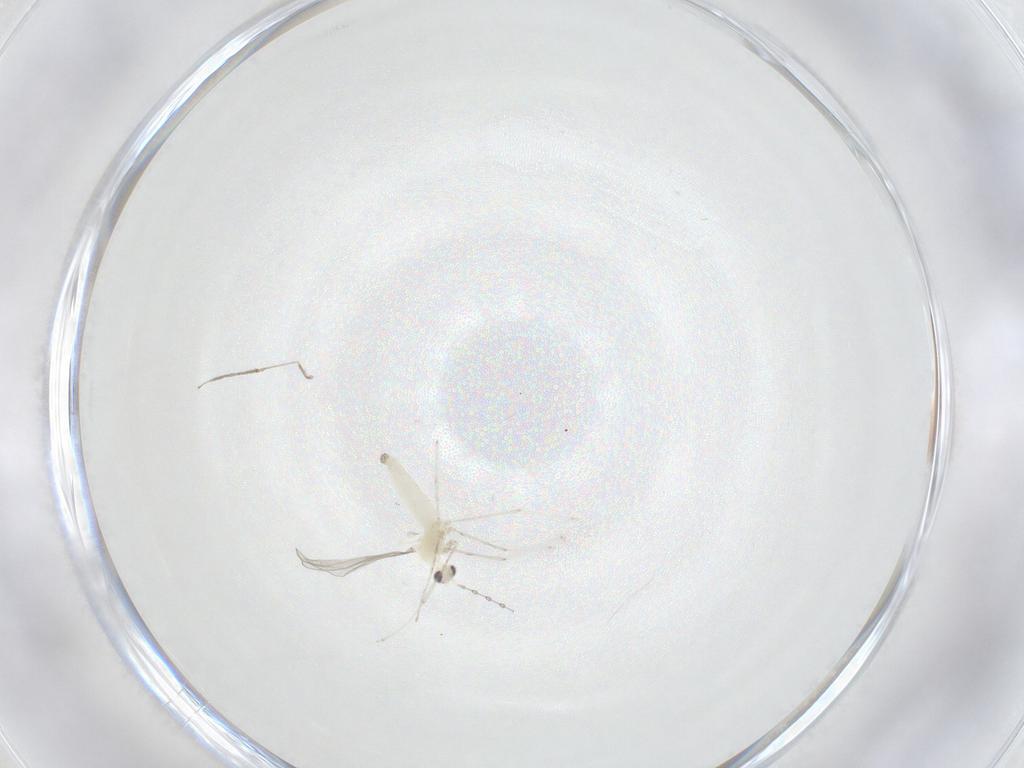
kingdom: Animalia
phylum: Arthropoda
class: Insecta
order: Diptera
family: Cecidomyiidae
